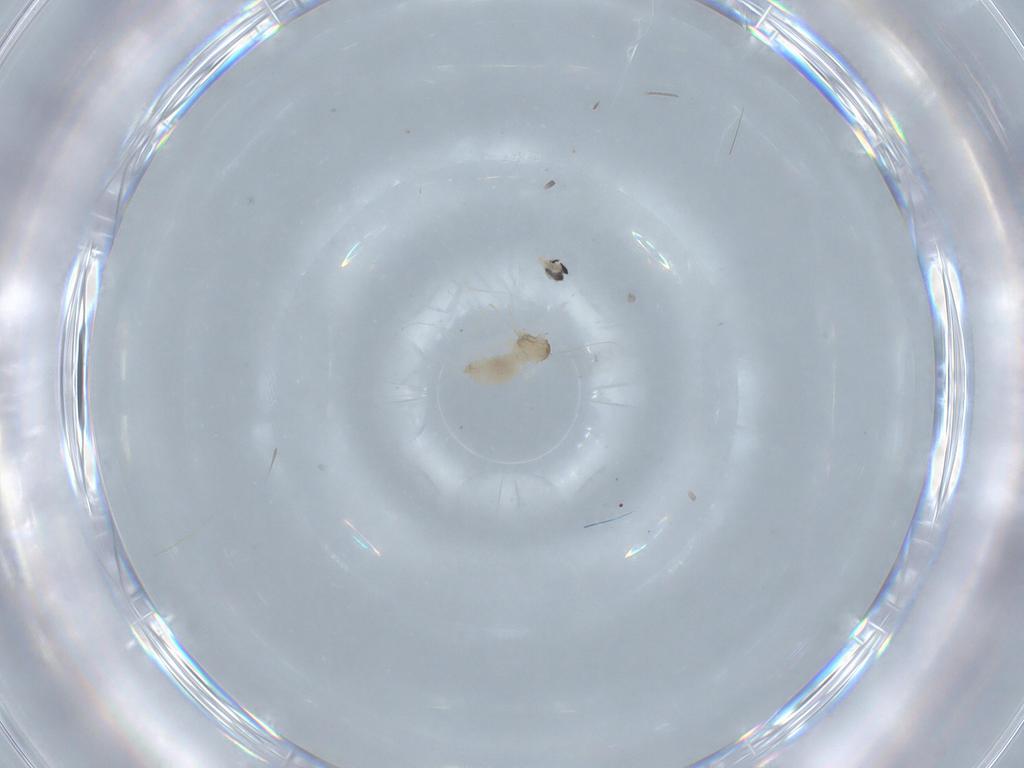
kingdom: Animalia
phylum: Arthropoda
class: Insecta
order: Diptera
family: Cecidomyiidae
